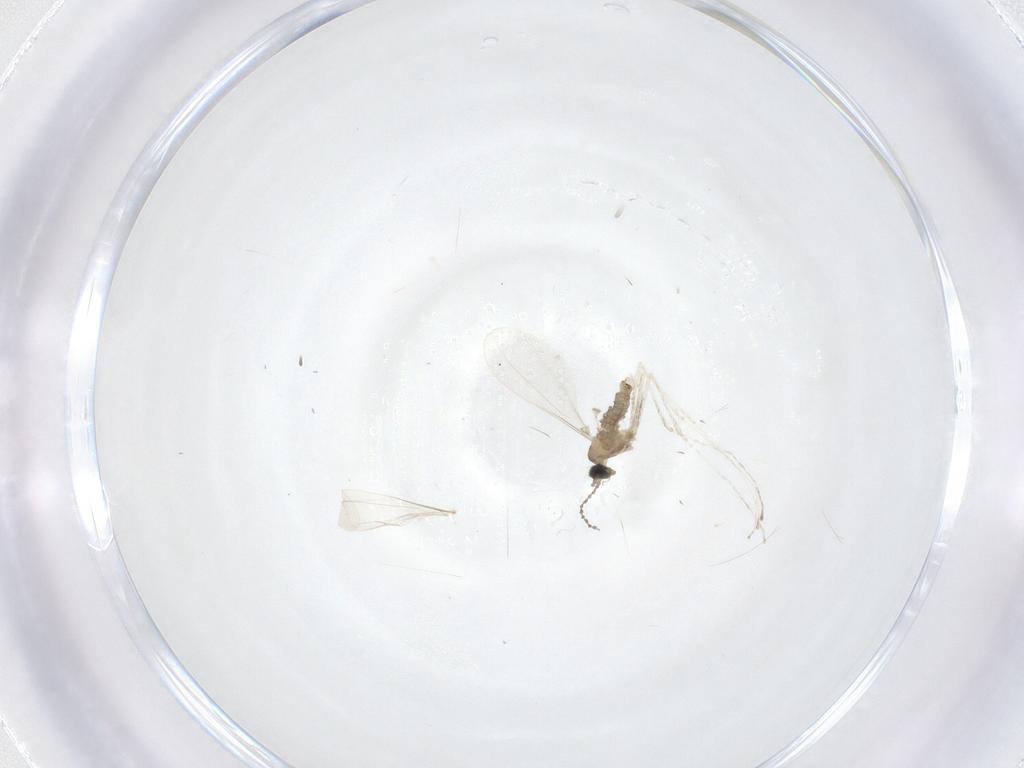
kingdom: Animalia
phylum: Arthropoda
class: Insecta
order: Diptera
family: Cecidomyiidae
